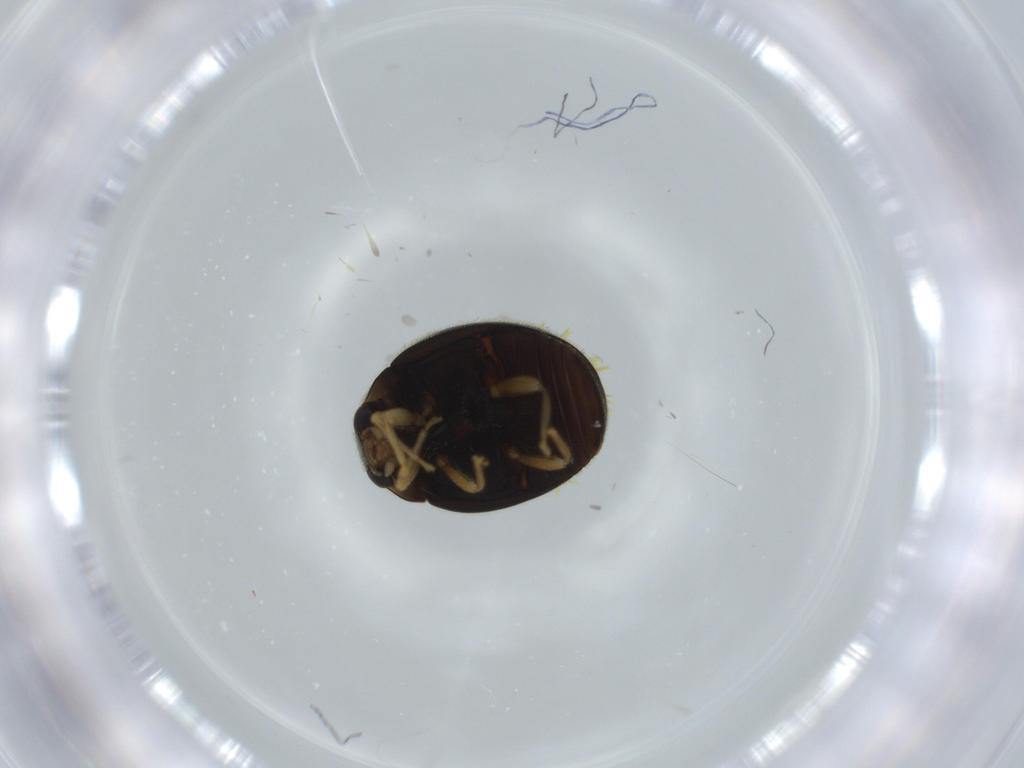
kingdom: Animalia
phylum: Arthropoda
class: Insecta
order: Coleoptera
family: Coccinellidae
